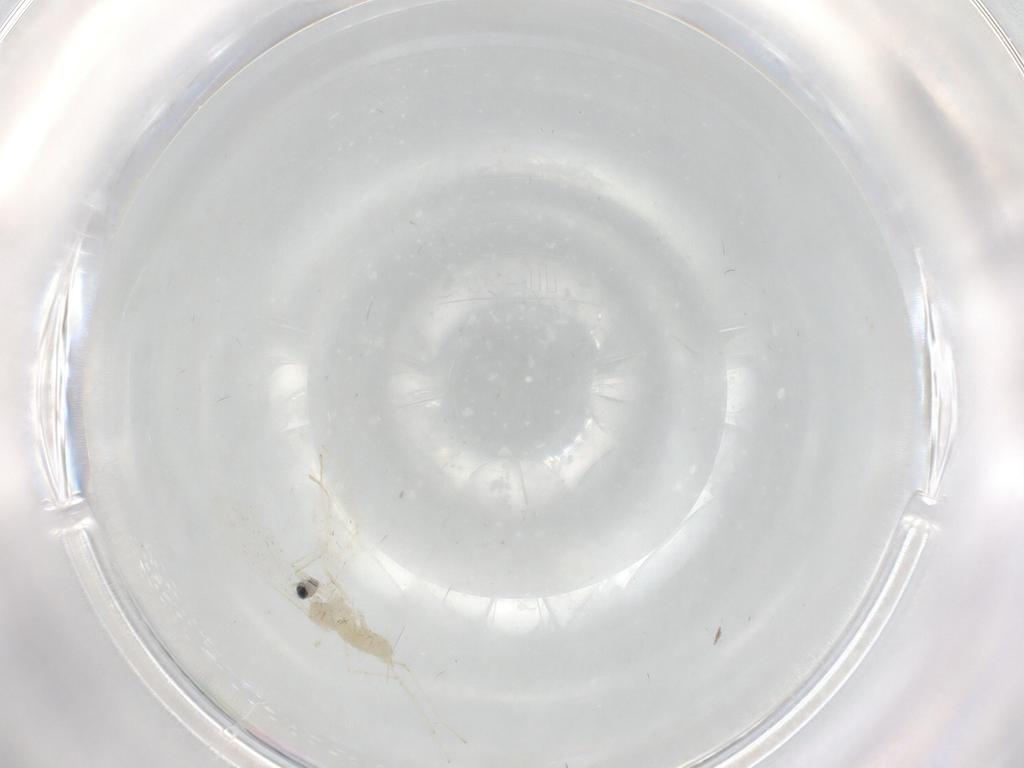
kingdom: Animalia
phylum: Arthropoda
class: Insecta
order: Diptera
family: Cecidomyiidae
